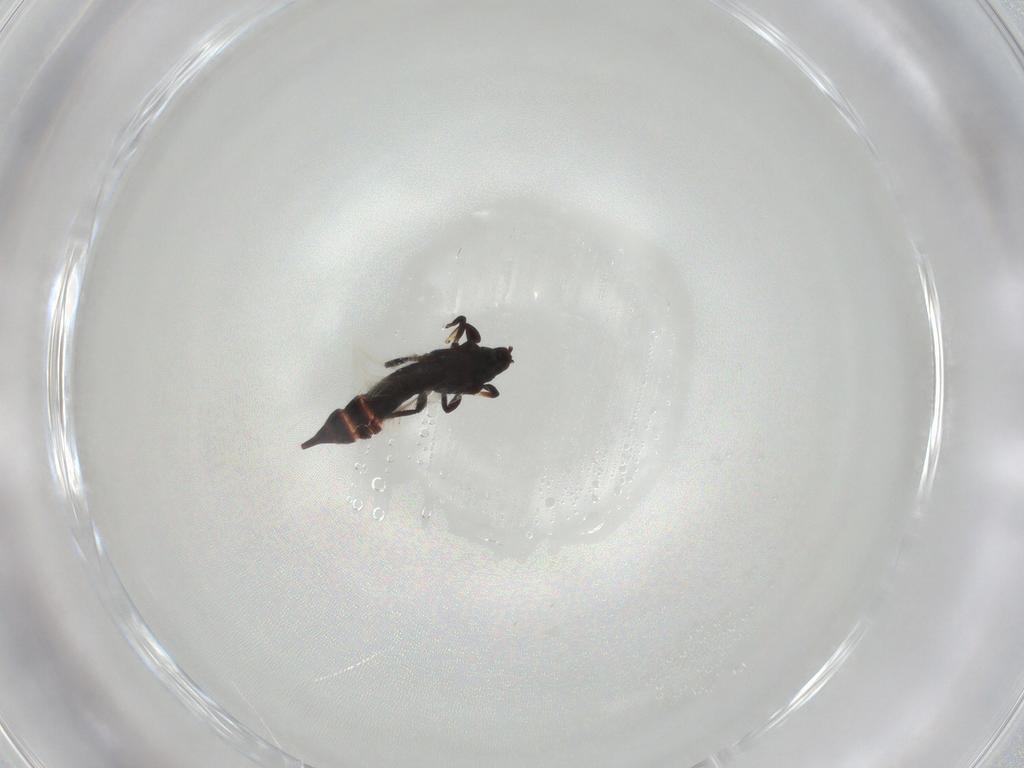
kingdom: Animalia
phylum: Arthropoda
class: Insecta
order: Thysanoptera
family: Phlaeothripidae
